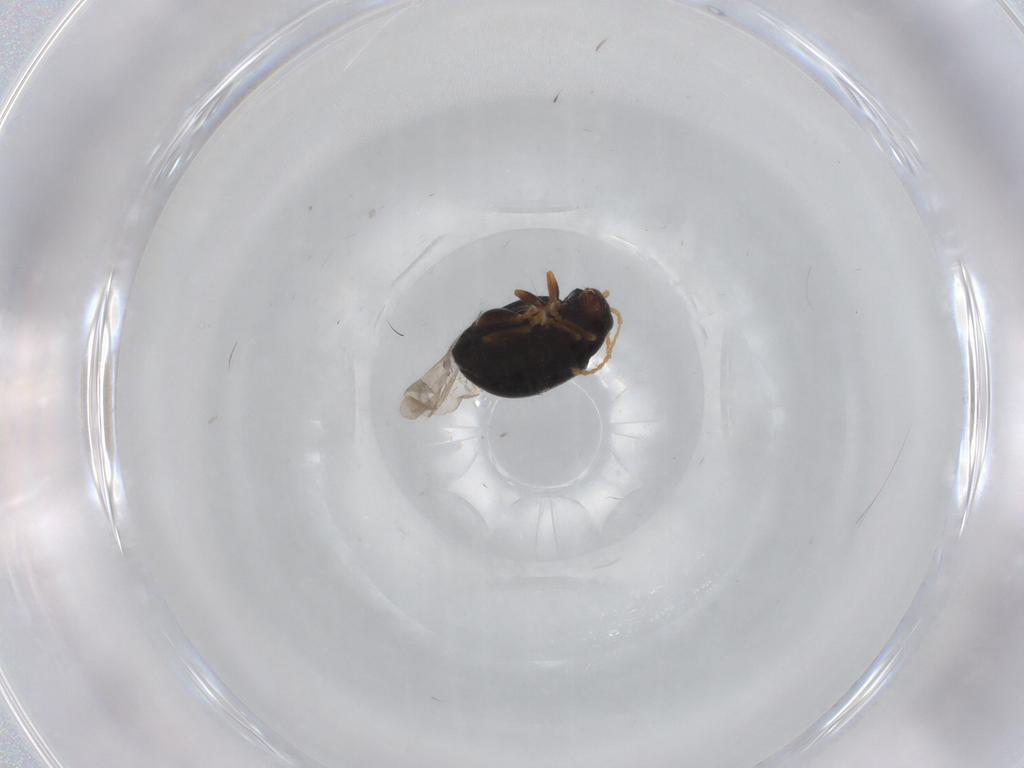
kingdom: Animalia
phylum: Arthropoda
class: Insecta
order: Coleoptera
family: Chrysomelidae
